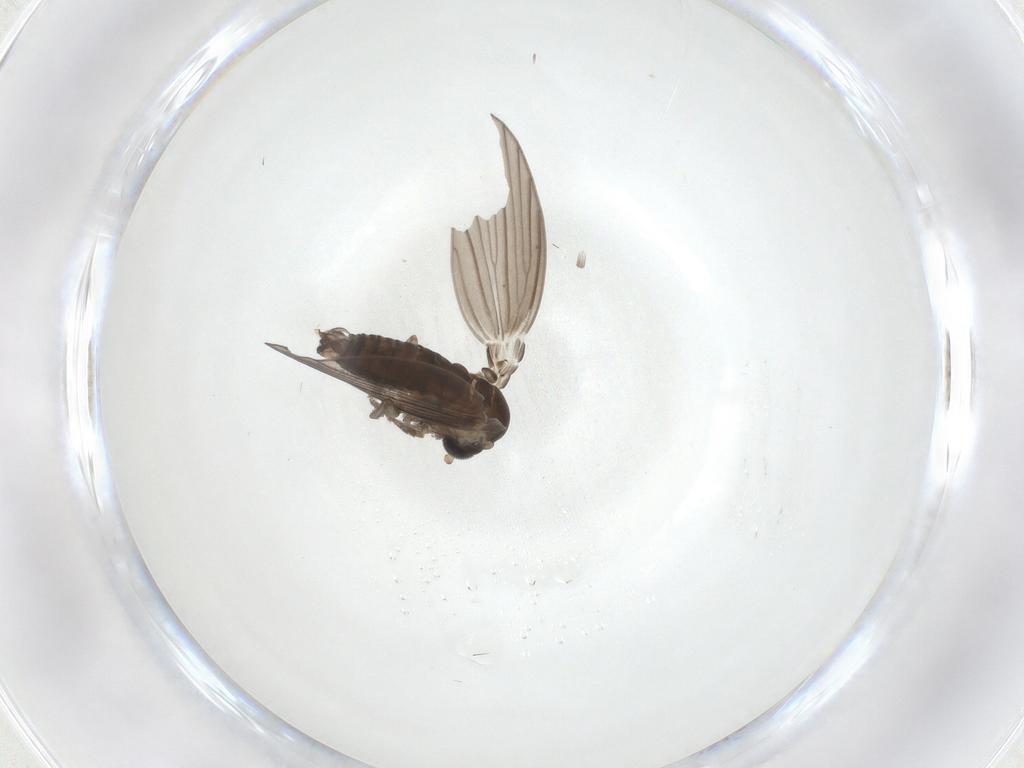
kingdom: Animalia
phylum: Arthropoda
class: Insecta
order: Diptera
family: Psychodidae
